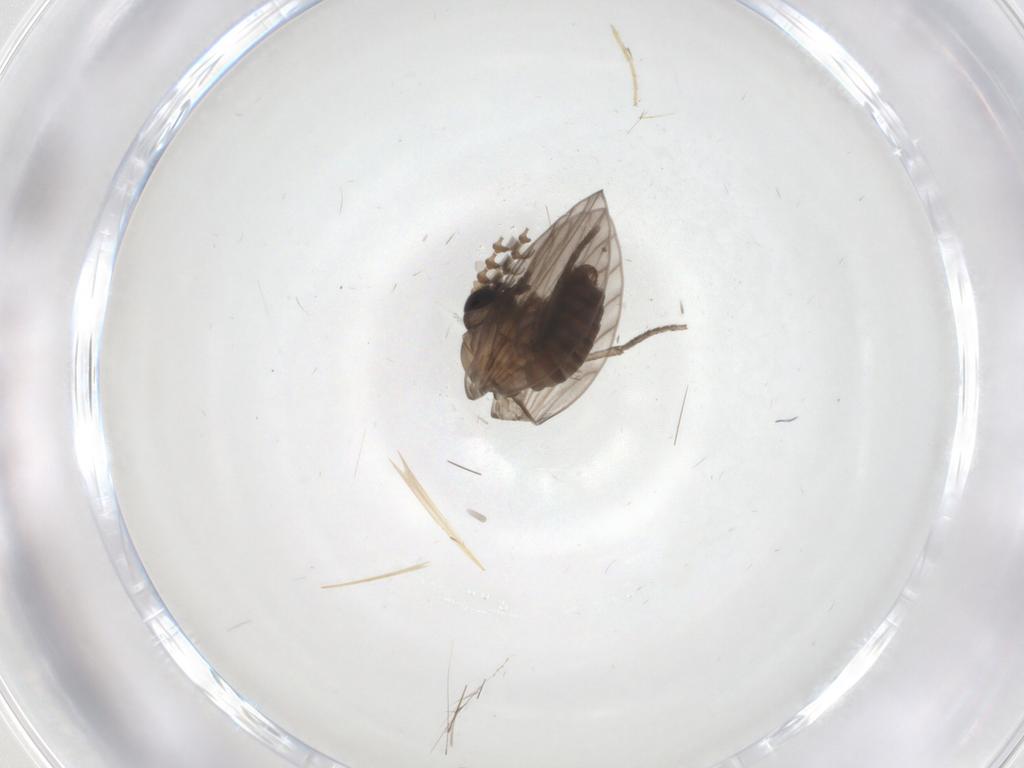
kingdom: Animalia
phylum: Arthropoda
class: Insecta
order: Diptera
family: Chironomidae
